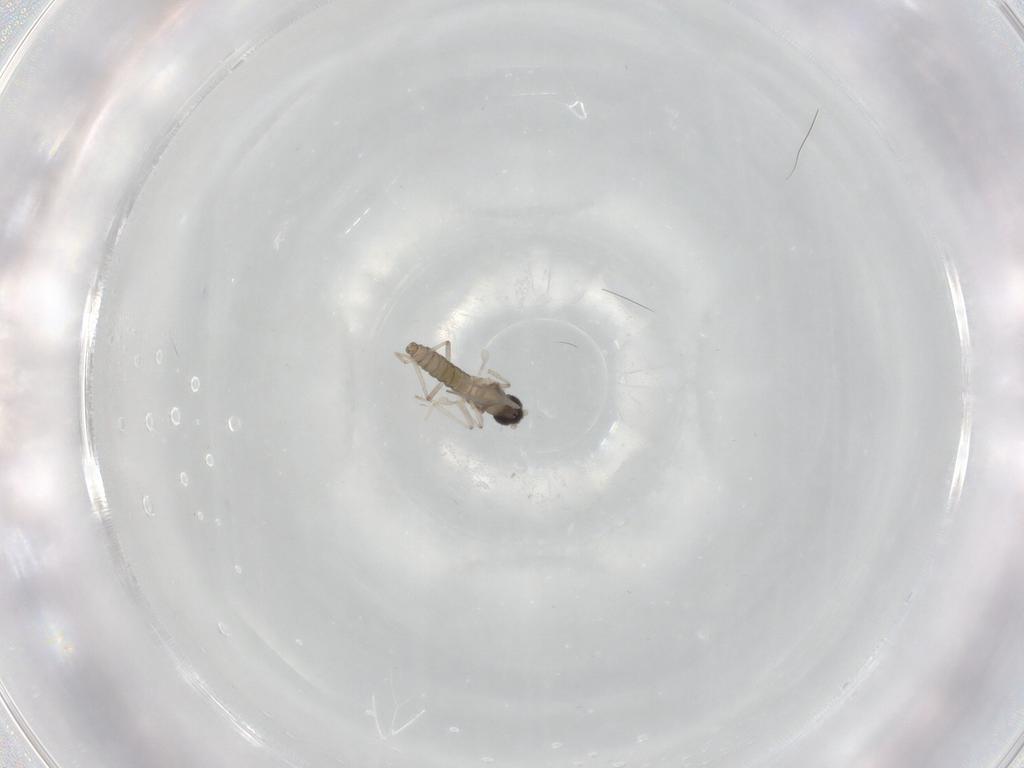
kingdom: Animalia
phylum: Arthropoda
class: Insecta
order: Diptera
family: Cecidomyiidae
